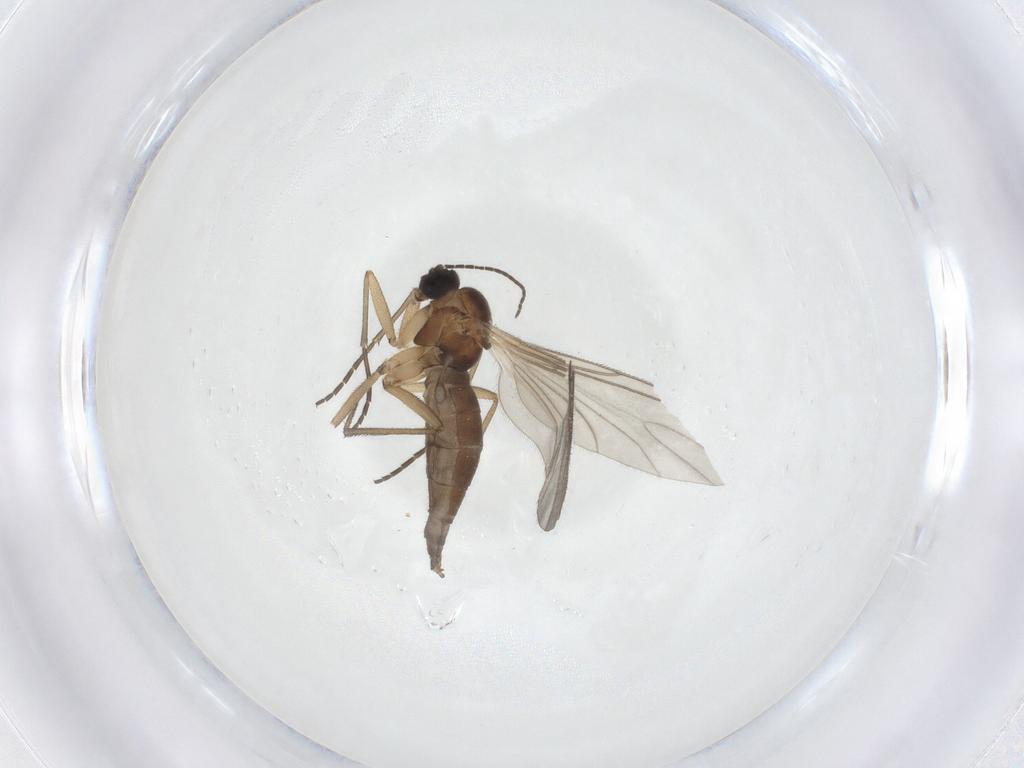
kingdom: Animalia
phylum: Arthropoda
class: Insecta
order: Diptera
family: Sciaridae
